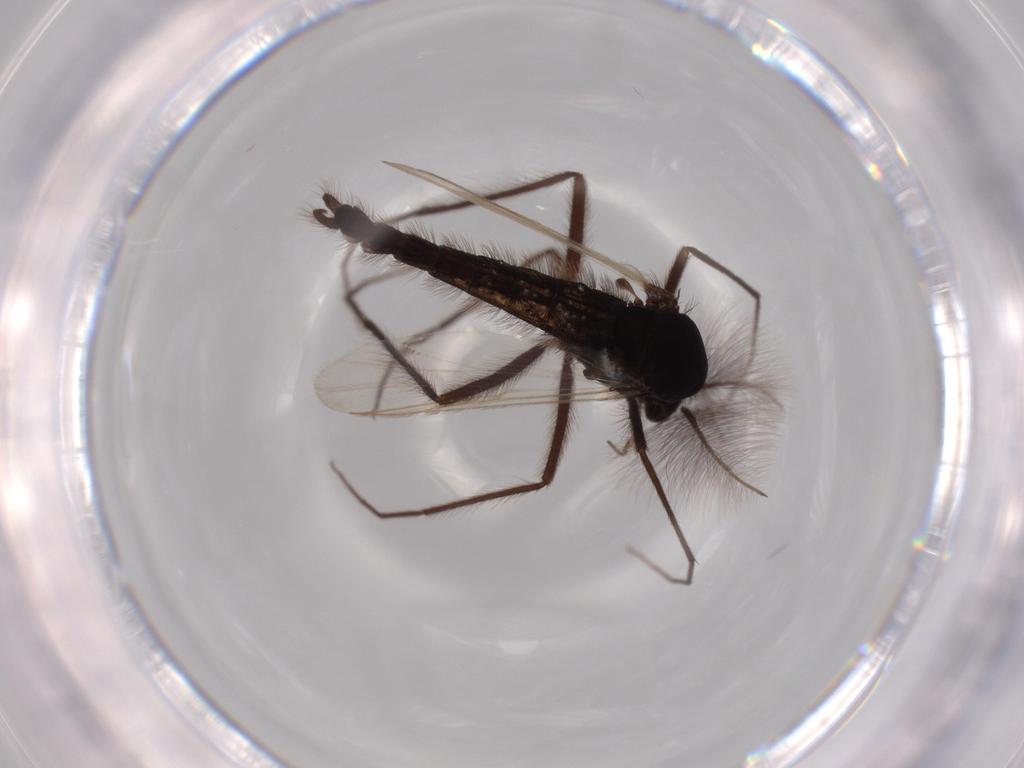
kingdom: Animalia
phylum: Arthropoda
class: Insecta
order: Diptera
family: Chironomidae
